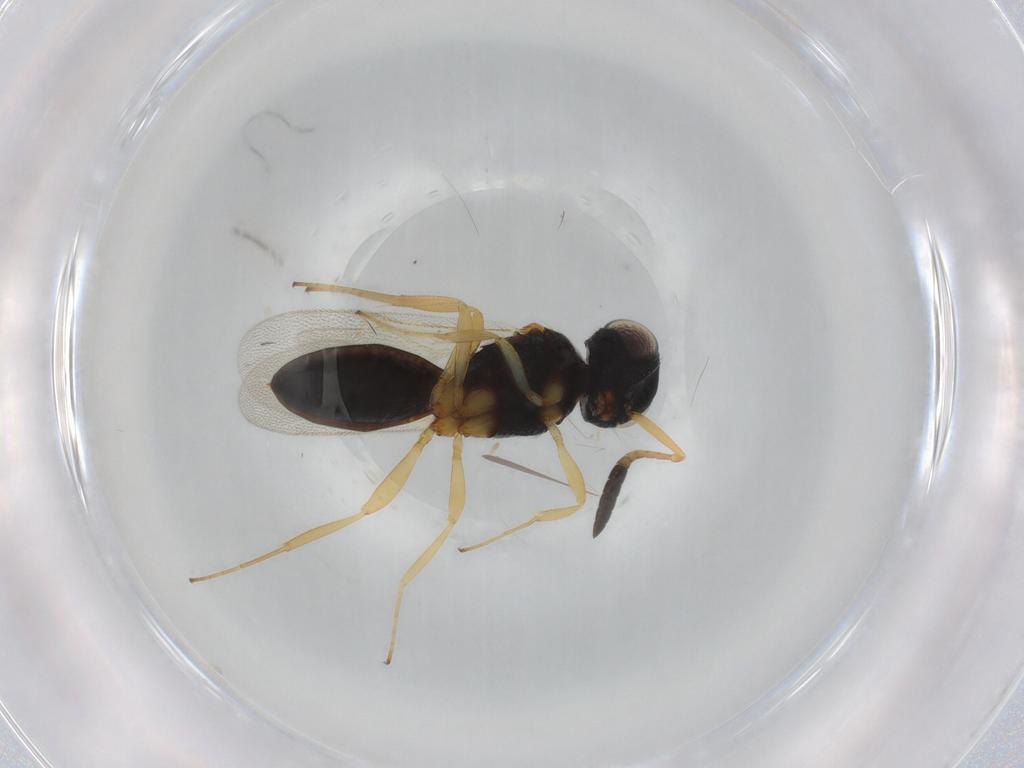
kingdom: Animalia
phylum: Arthropoda
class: Insecta
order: Hymenoptera
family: Scelionidae
